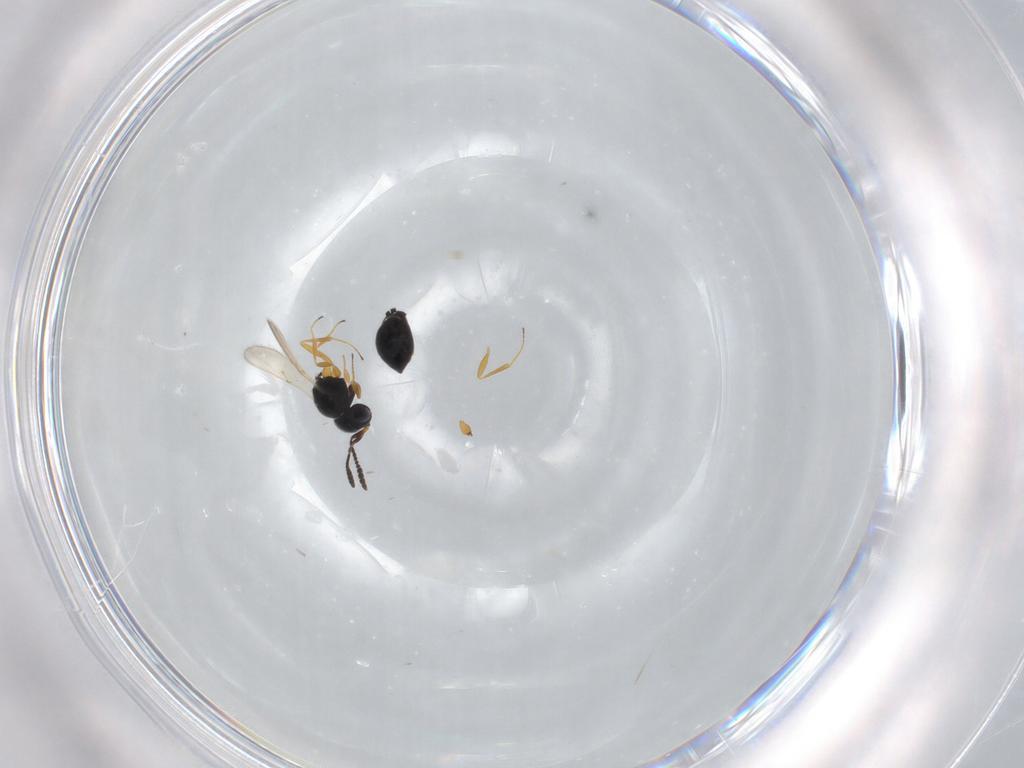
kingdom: Animalia
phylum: Arthropoda
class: Insecta
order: Hymenoptera
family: Scelionidae
